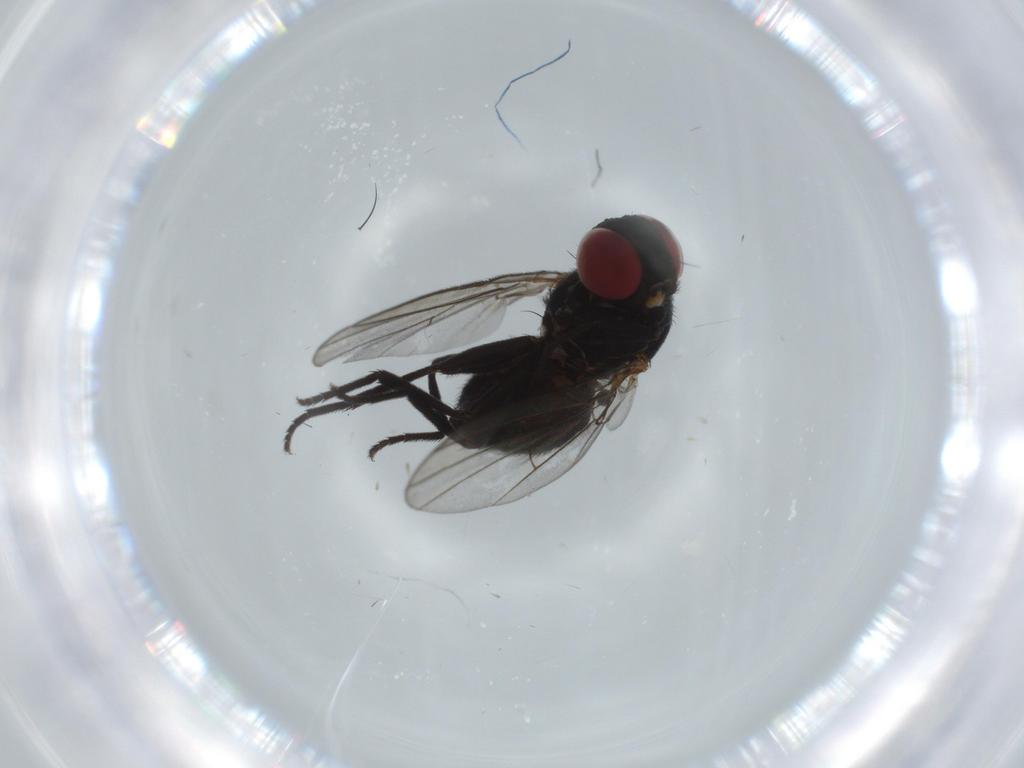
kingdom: Animalia
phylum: Arthropoda
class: Insecta
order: Diptera
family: Agromyzidae
